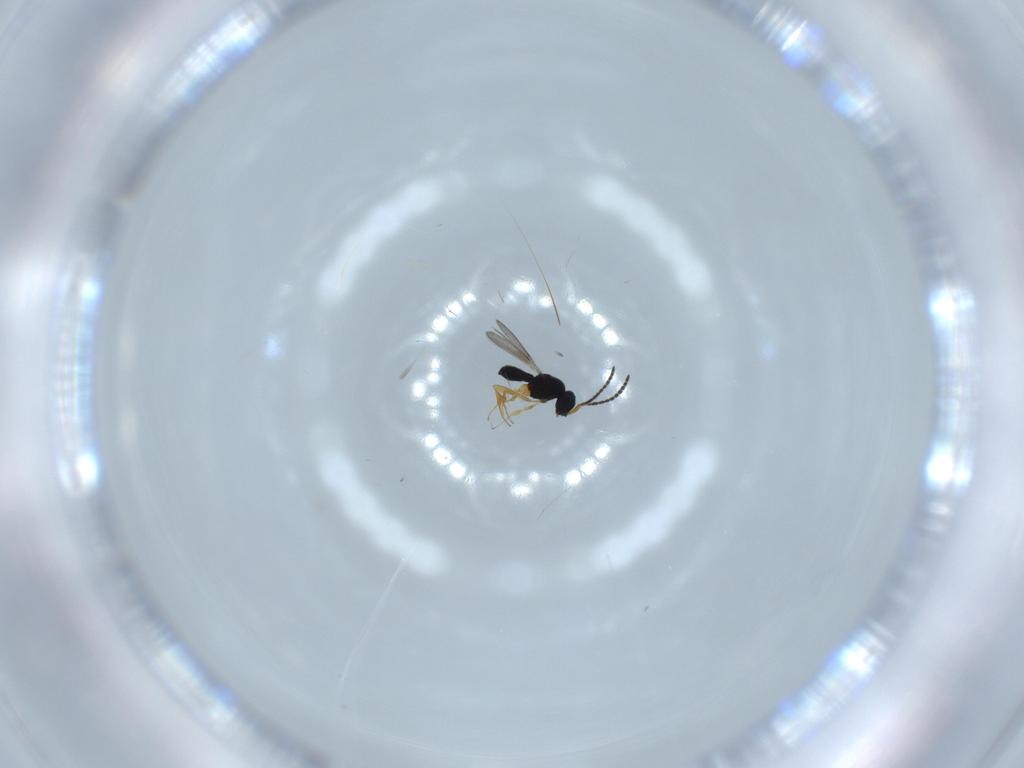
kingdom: Animalia
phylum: Arthropoda
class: Insecta
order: Hymenoptera
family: Scelionidae
